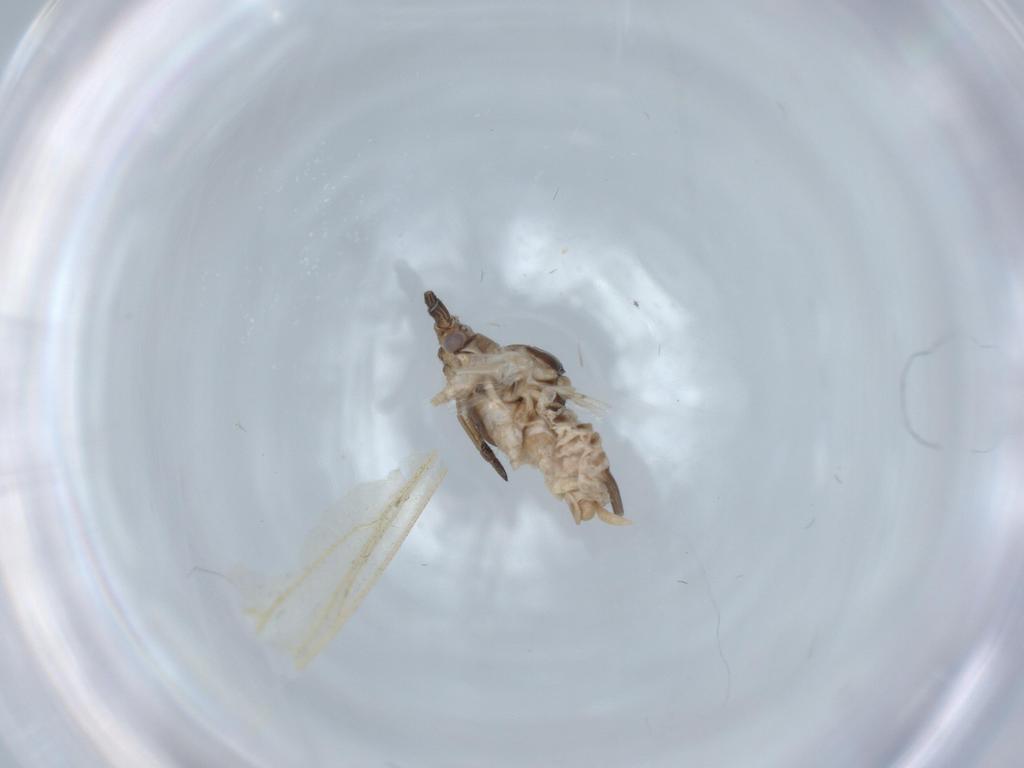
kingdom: Animalia
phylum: Arthropoda
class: Insecta
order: Hemiptera
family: Aphididae
